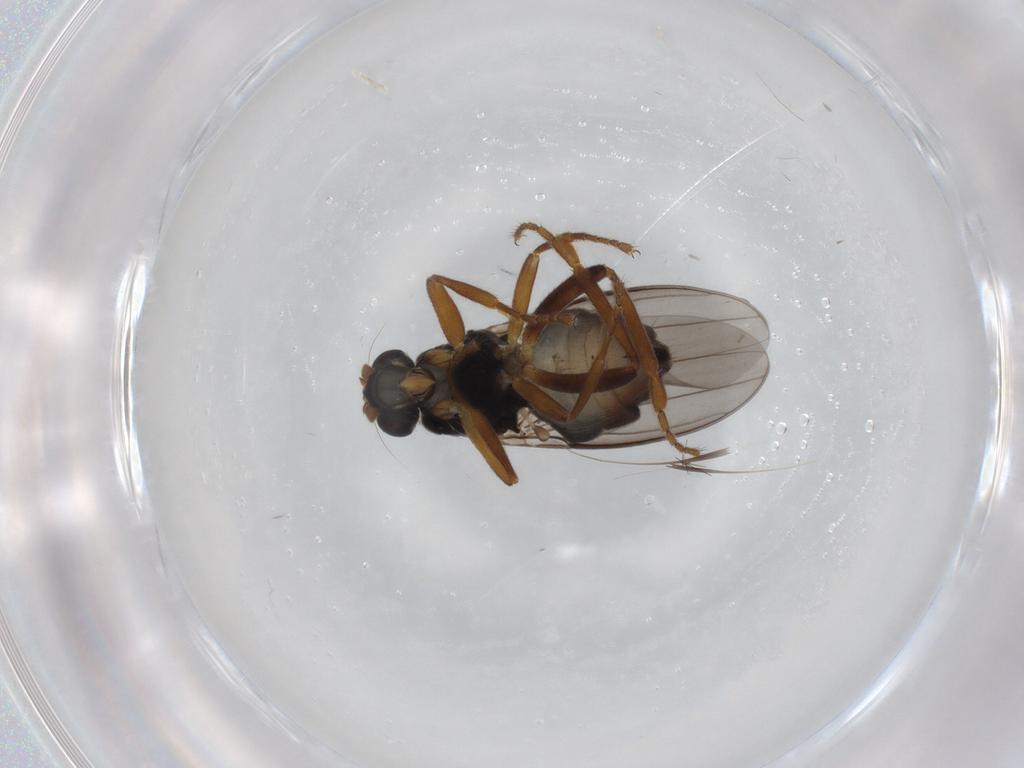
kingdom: Animalia
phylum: Arthropoda
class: Insecta
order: Diptera
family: Sphaeroceridae
